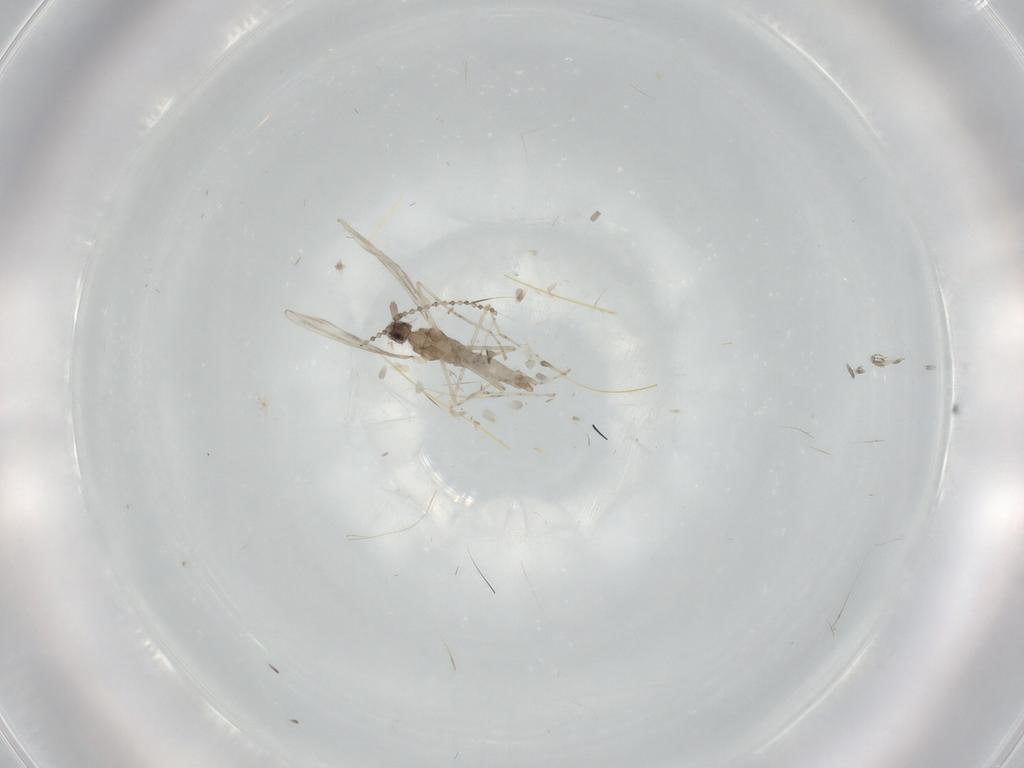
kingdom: Animalia
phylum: Arthropoda
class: Insecta
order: Diptera
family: Cecidomyiidae
